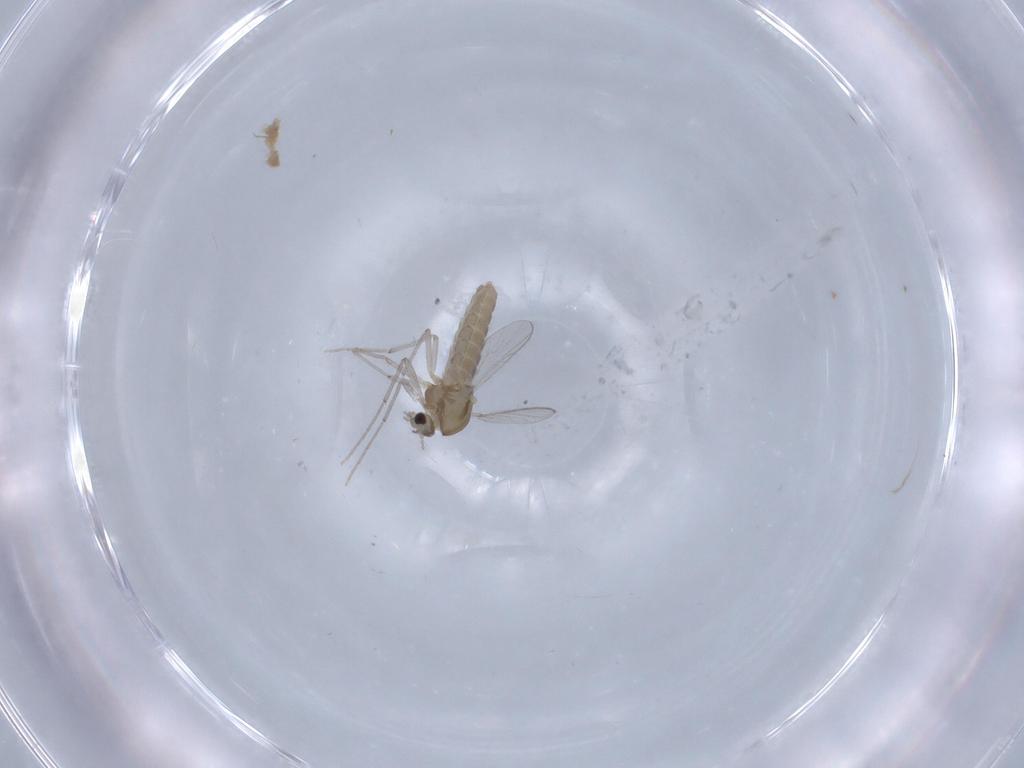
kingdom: Animalia
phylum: Arthropoda
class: Insecta
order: Diptera
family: Chironomidae
